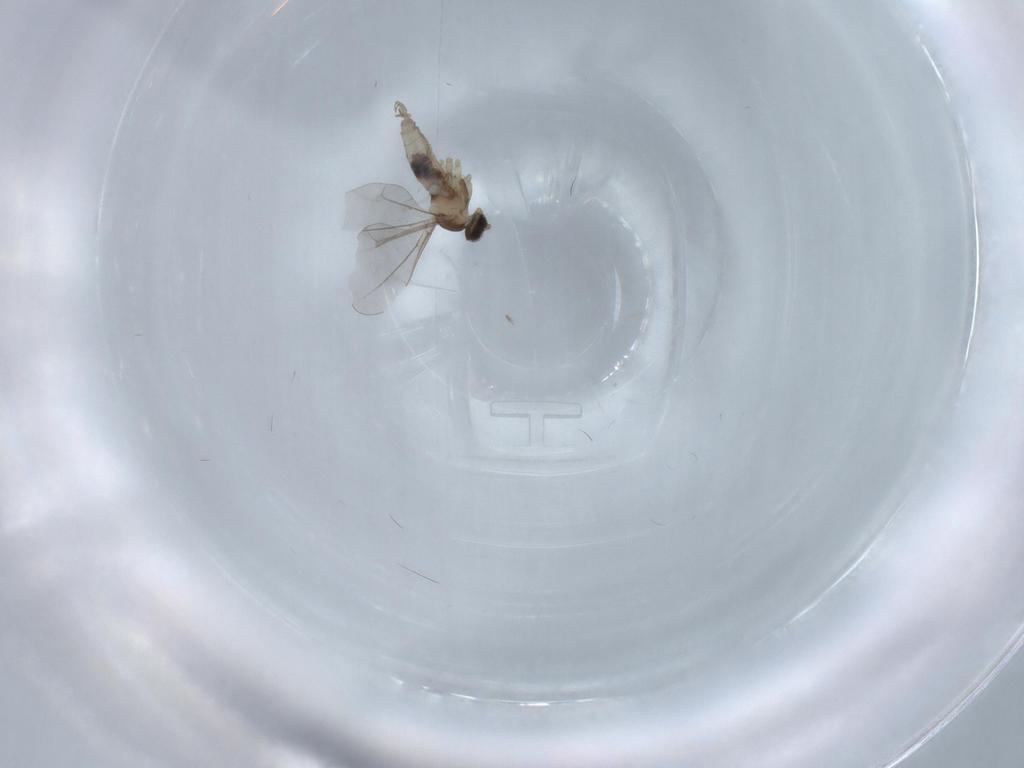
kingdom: Animalia
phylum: Arthropoda
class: Insecta
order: Diptera
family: Cecidomyiidae
